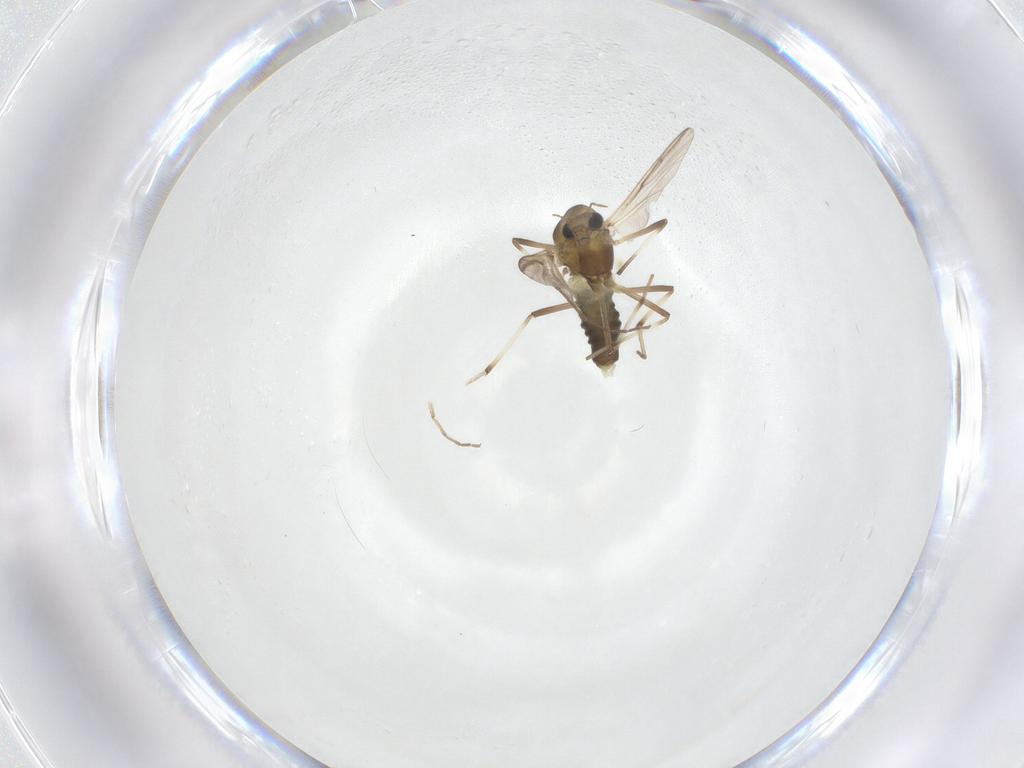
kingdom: Animalia
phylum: Arthropoda
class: Insecta
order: Diptera
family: Chironomidae
